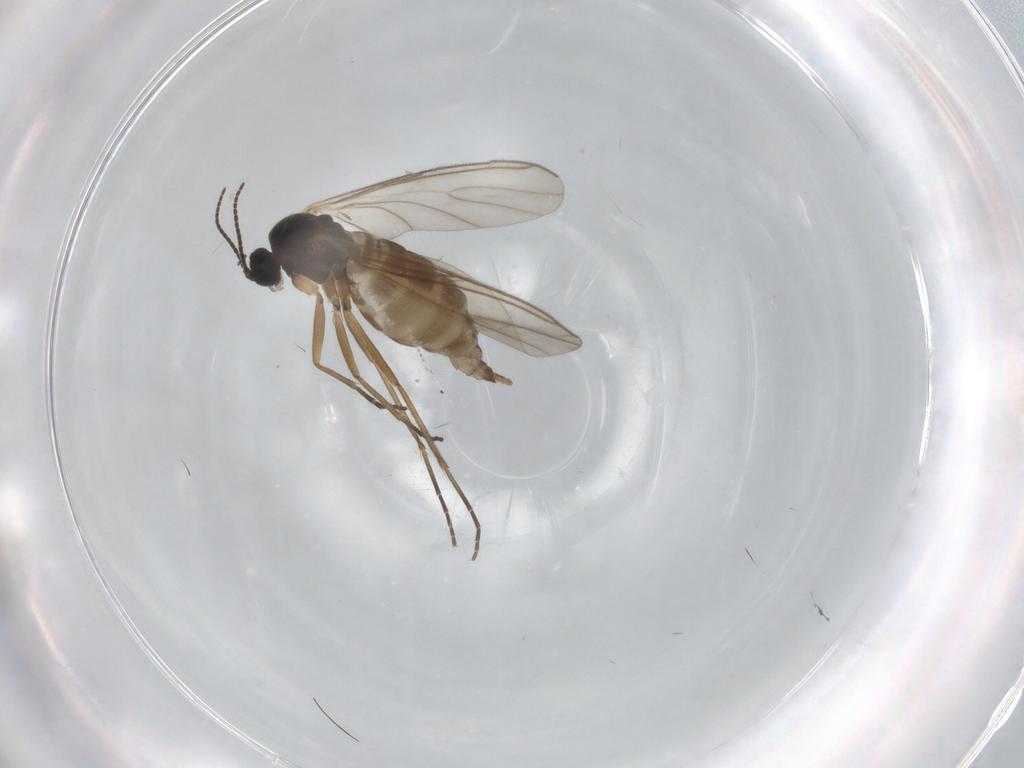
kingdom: Animalia
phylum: Arthropoda
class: Insecta
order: Diptera
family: Sciaridae
